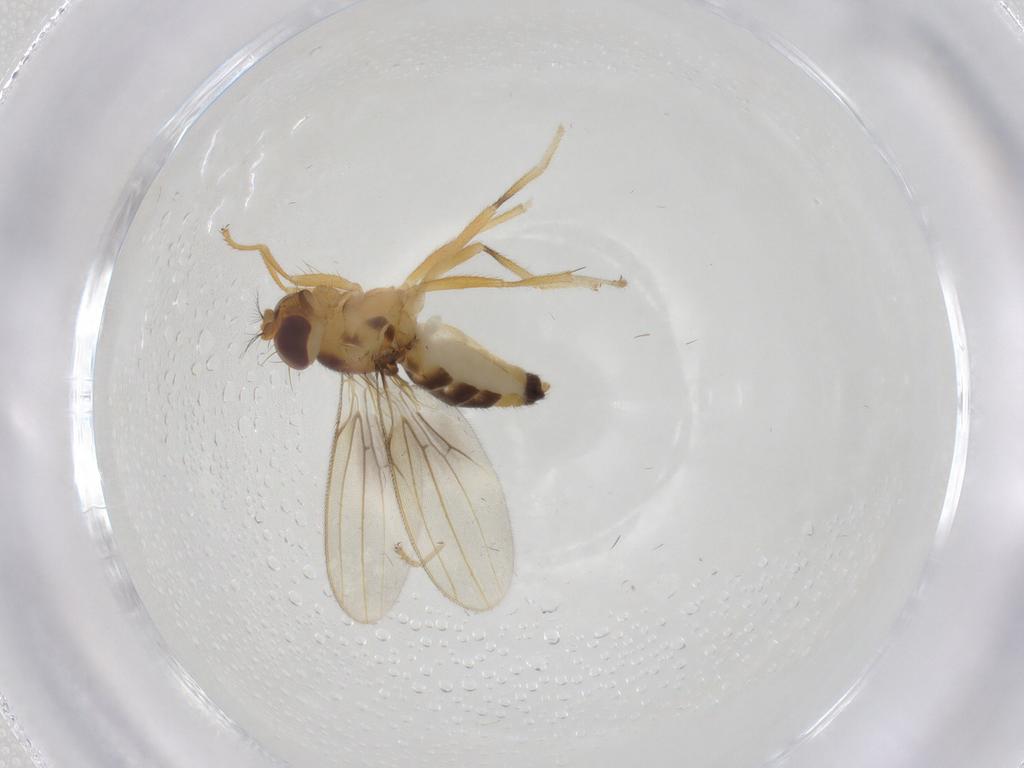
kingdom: Animalia
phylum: Arthropoda
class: Insecta
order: Diptera
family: Periscelididae
